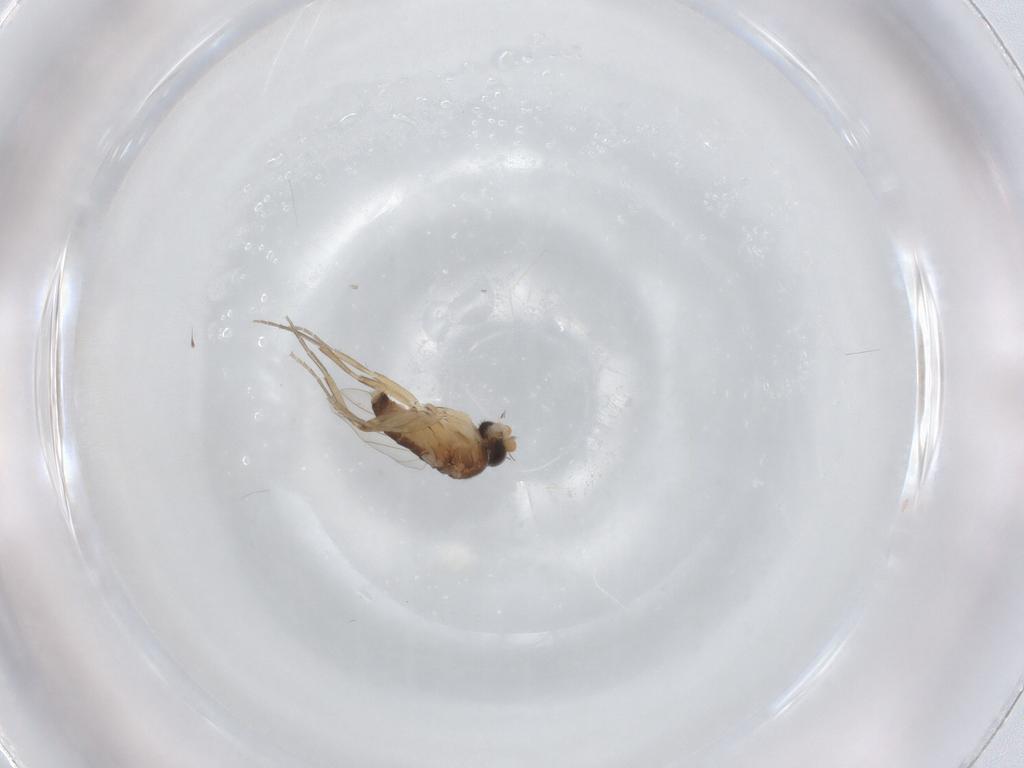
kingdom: Animalia
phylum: Arthropoda
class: Insecta
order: Diptera
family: Phoridae
